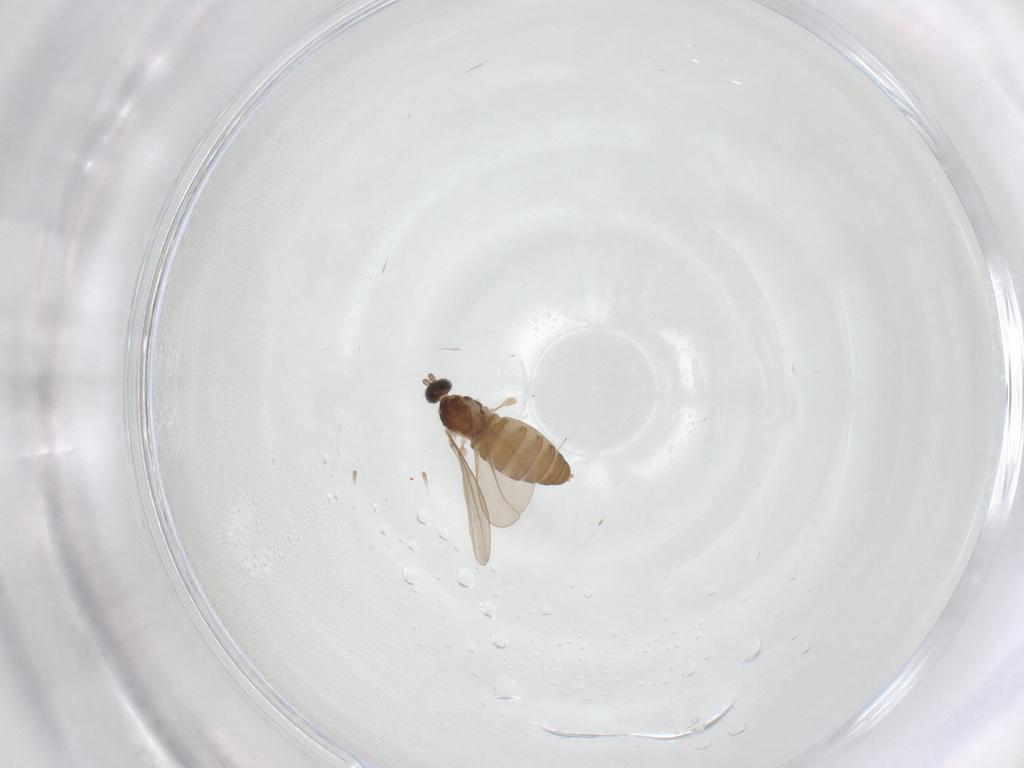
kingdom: Animalia
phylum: Arthropoda
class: Insecta
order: Diptera
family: Cecidomyiidae
